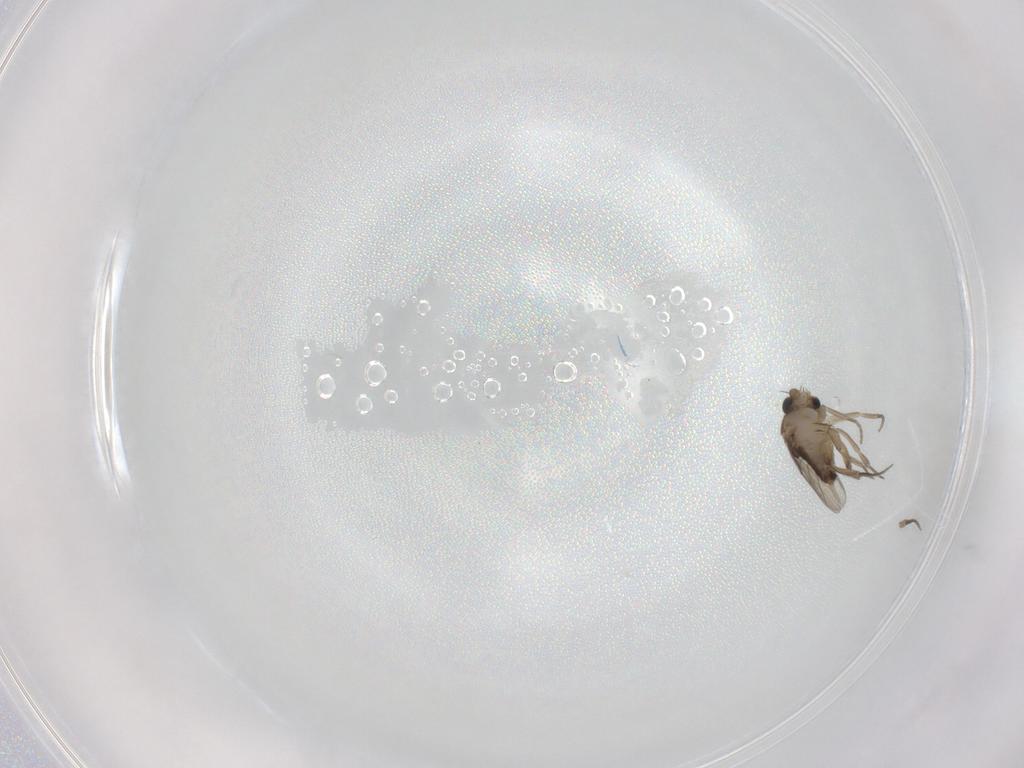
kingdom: Animalia
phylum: Arthropoda
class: Insecta
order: Diptera
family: Phoridae
